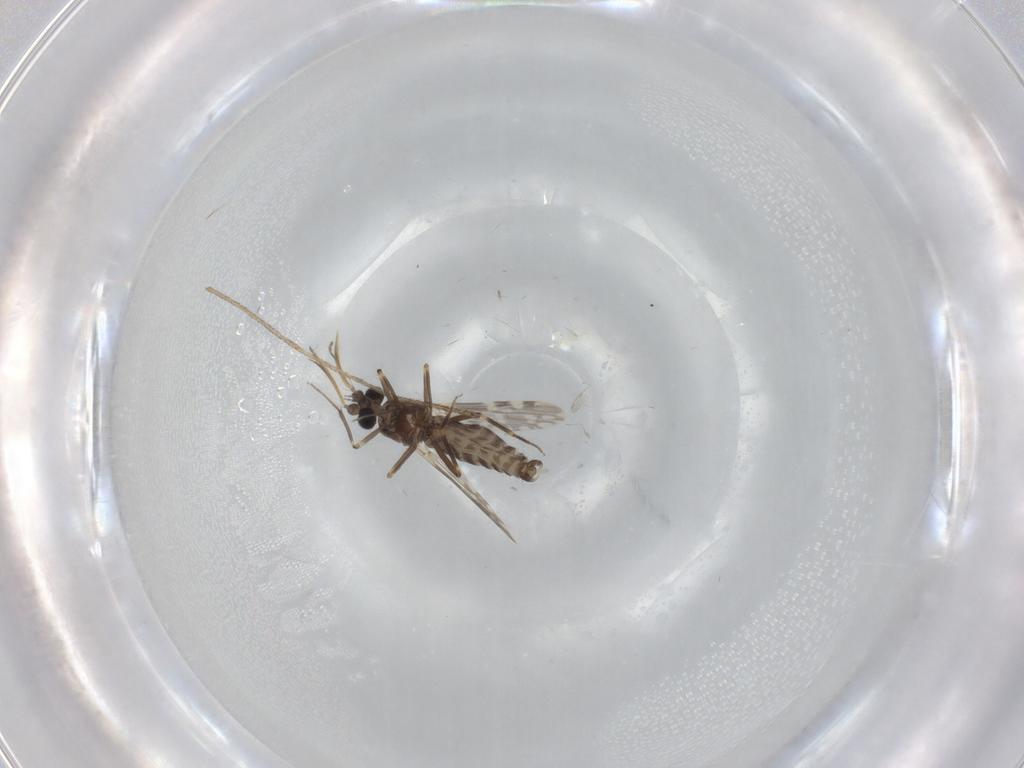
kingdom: Animalia
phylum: Arthropoda
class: Insecta
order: Diptera
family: Ceratopogonidae
